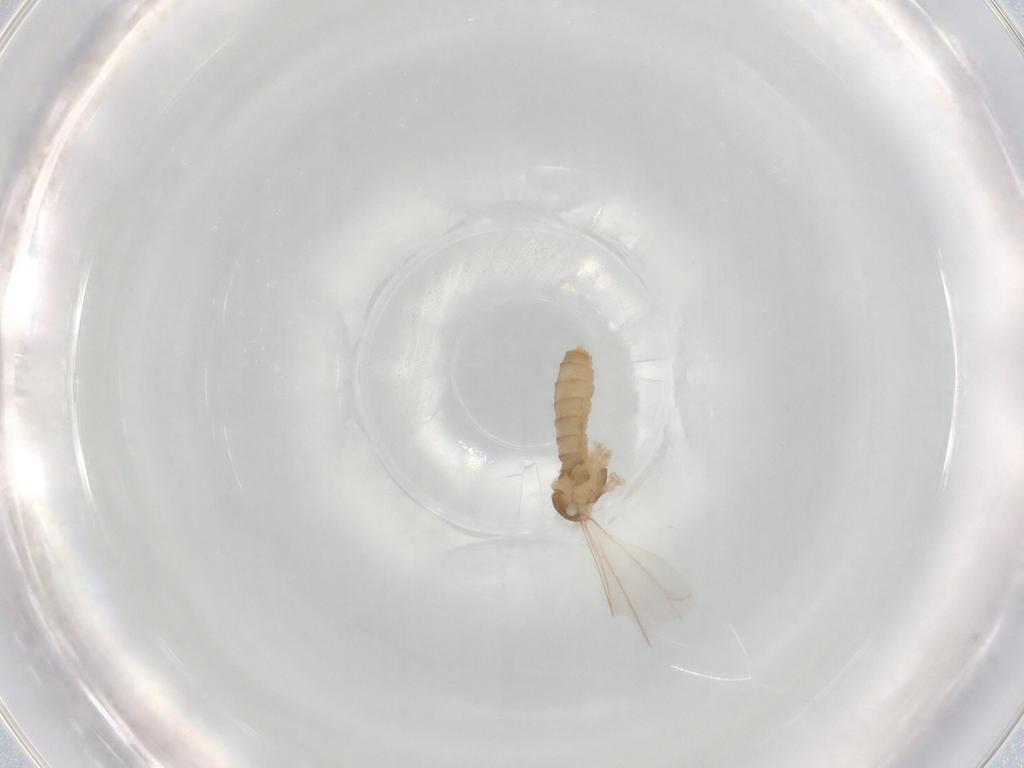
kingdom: Animalia
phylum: Arthropoda
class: Insecta
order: Diptera
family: Cecidomyiidae
